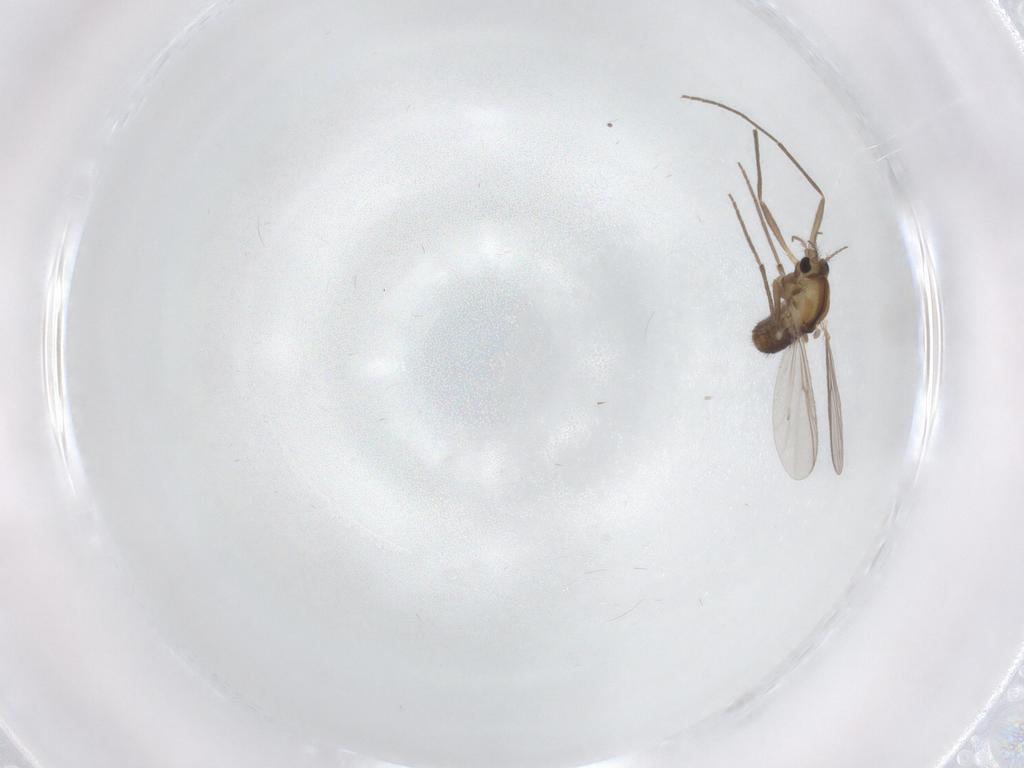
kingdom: Animalia
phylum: Arthropoda
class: Insecta
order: Diptera
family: Chironomidae
